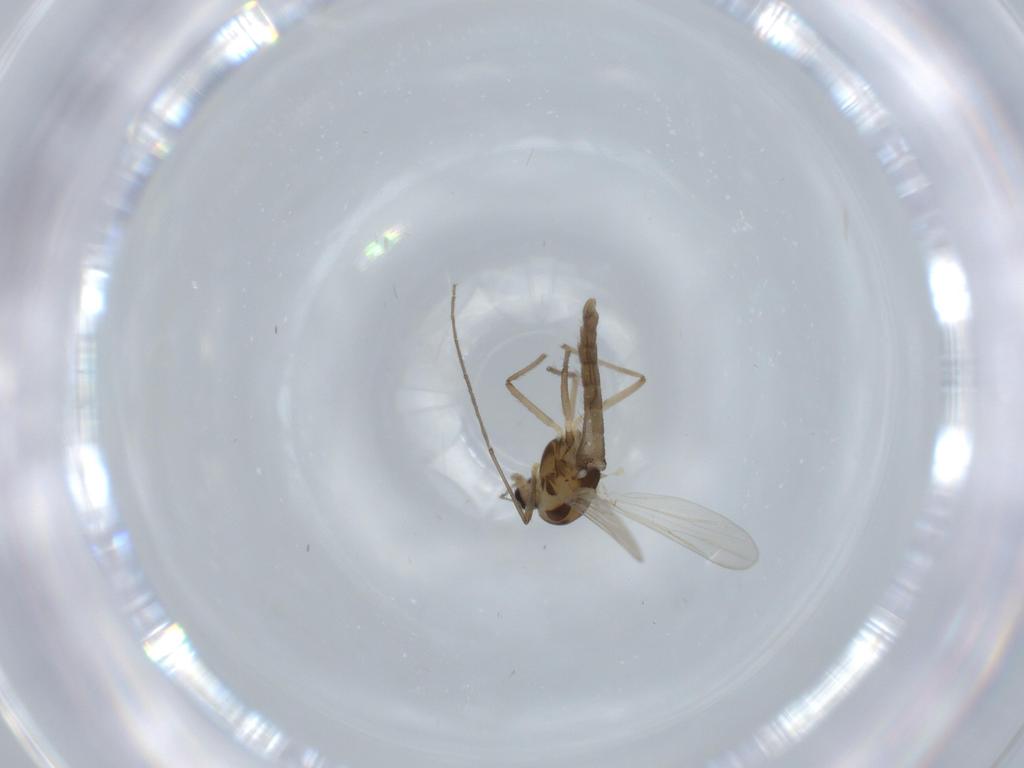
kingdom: Animalia
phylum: Arthropoda
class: Insecta
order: Diptera
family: Chironomidae
